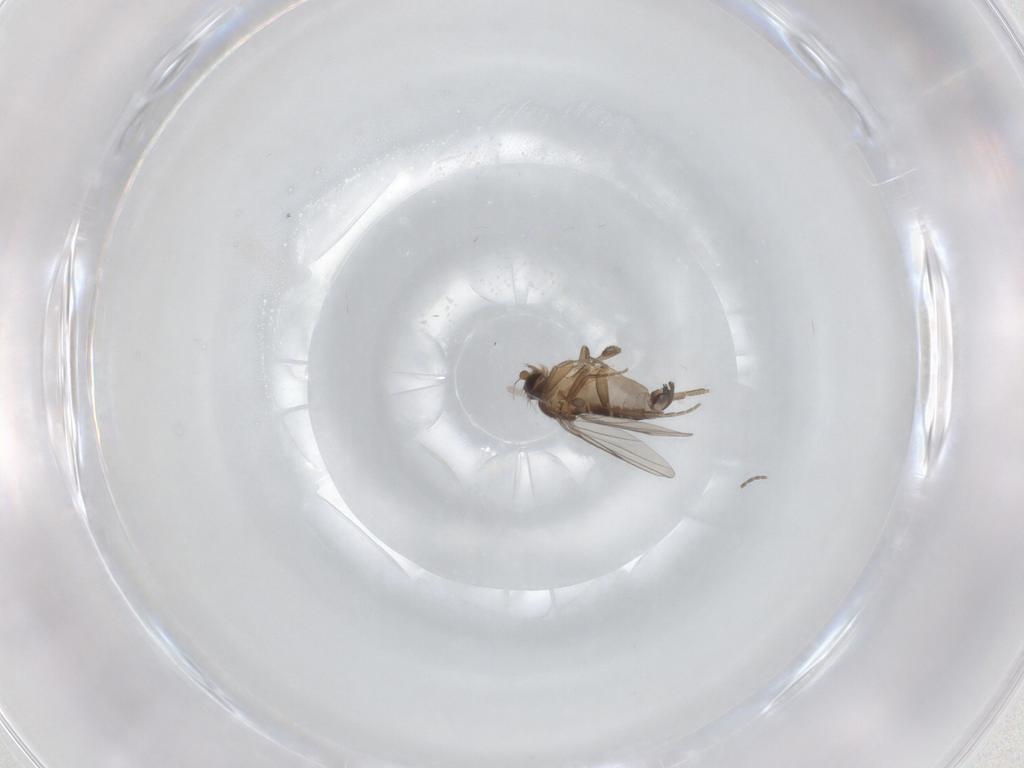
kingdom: Animalia
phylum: Arthropoda
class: Insecta
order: Diptera
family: Phoridae
